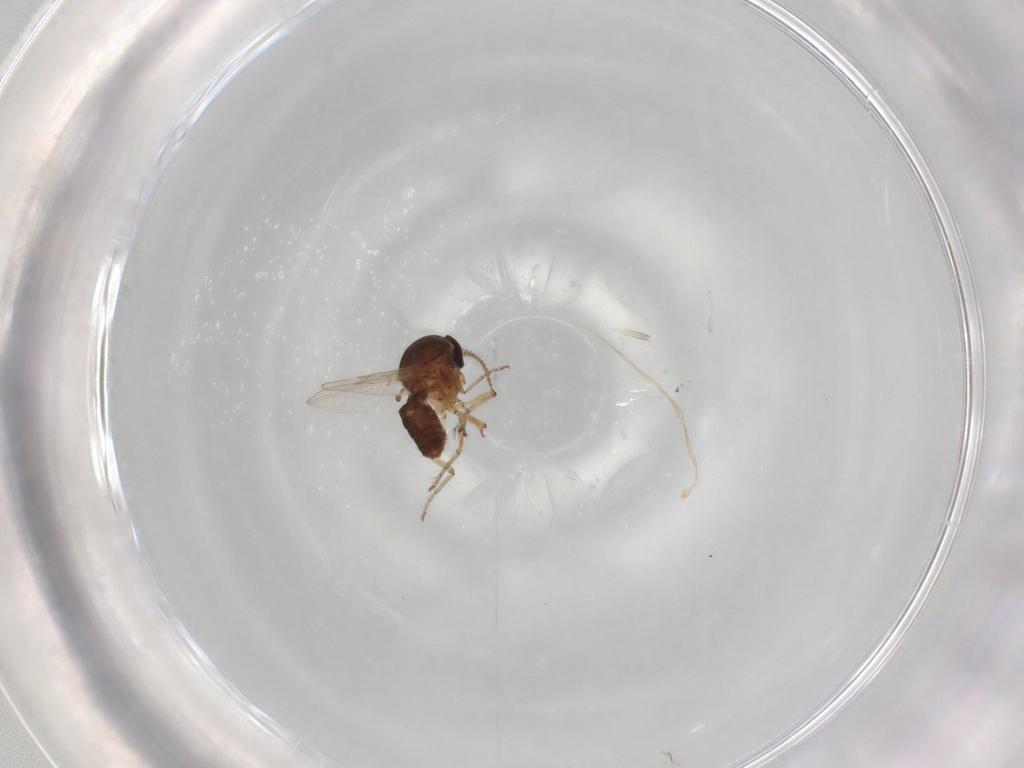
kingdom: Animalia
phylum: Arthropoda
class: Insecta
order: Diptera
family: Ceratopogonidae
